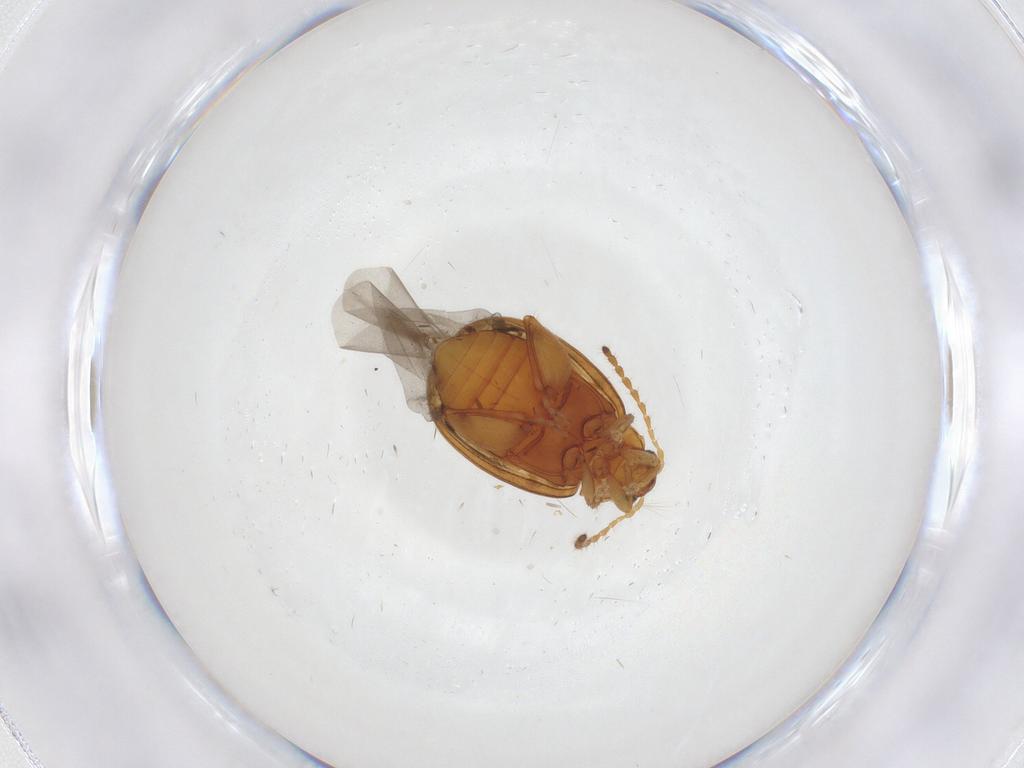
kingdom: Animalia
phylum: Arthropoda
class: Insecta
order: Coleoptera
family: Chrysomelidae
